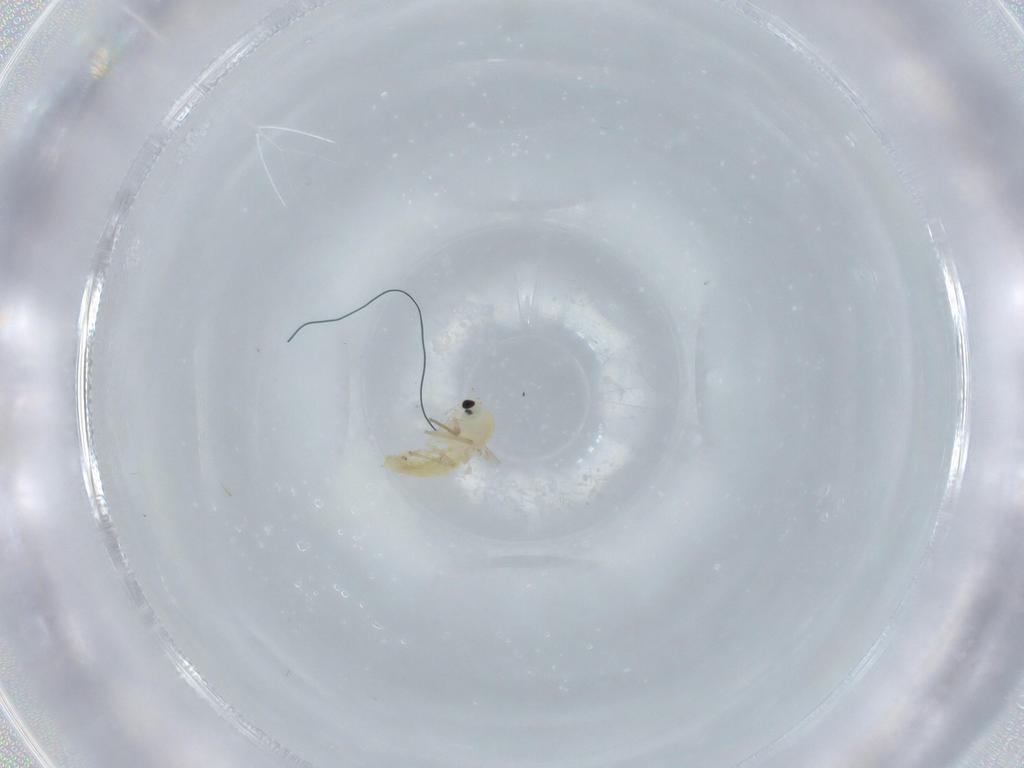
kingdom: Animalia
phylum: Arthropoda
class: Insecta
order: Diptera
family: Chironomidae
